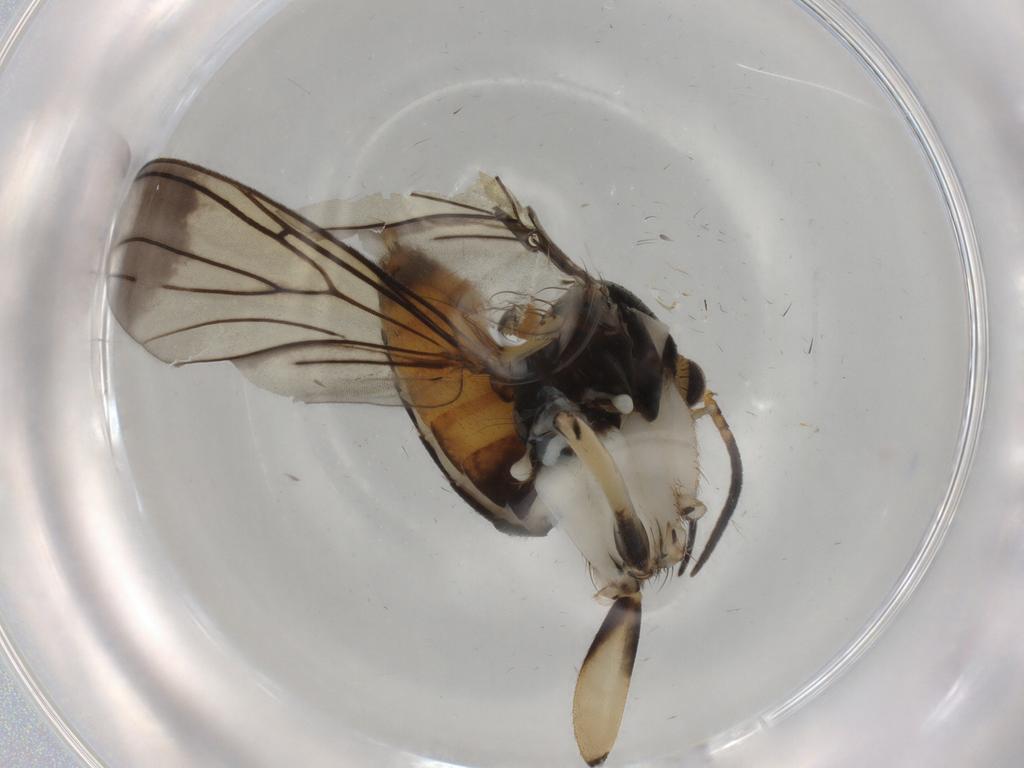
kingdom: Animalia
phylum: Arthropoda
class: Insecta
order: Diptera
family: Mycetophilidae
